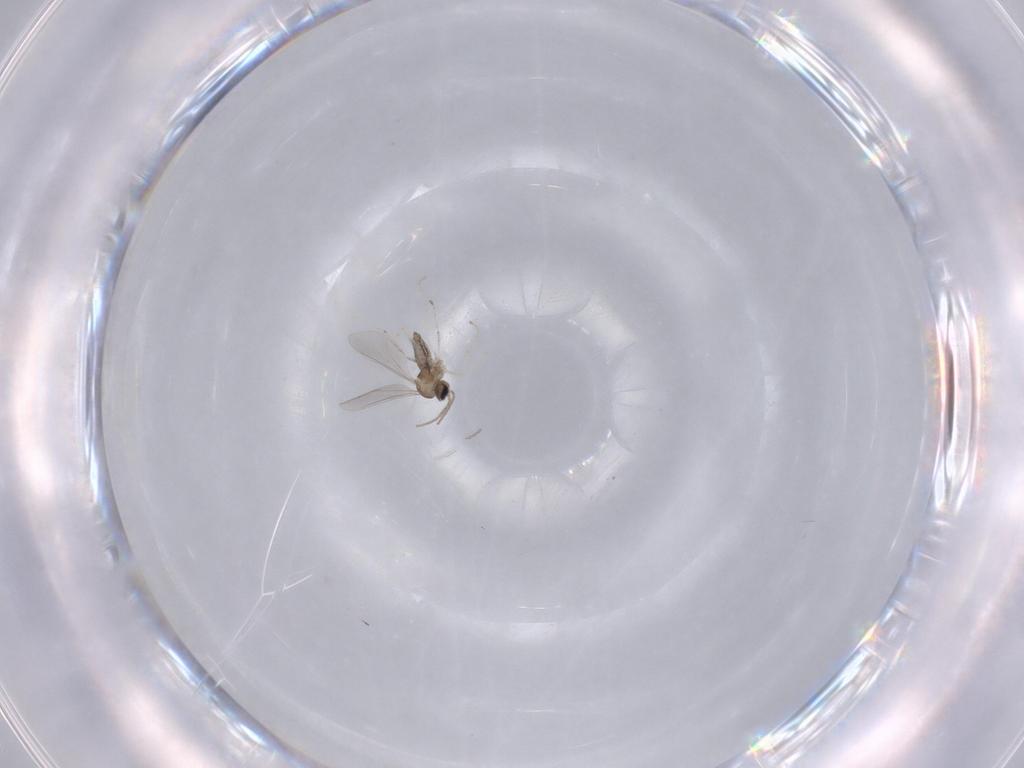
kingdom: Animalia
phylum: Arthropoda
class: Insecta
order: Diptera
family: Cecidomyiidae
